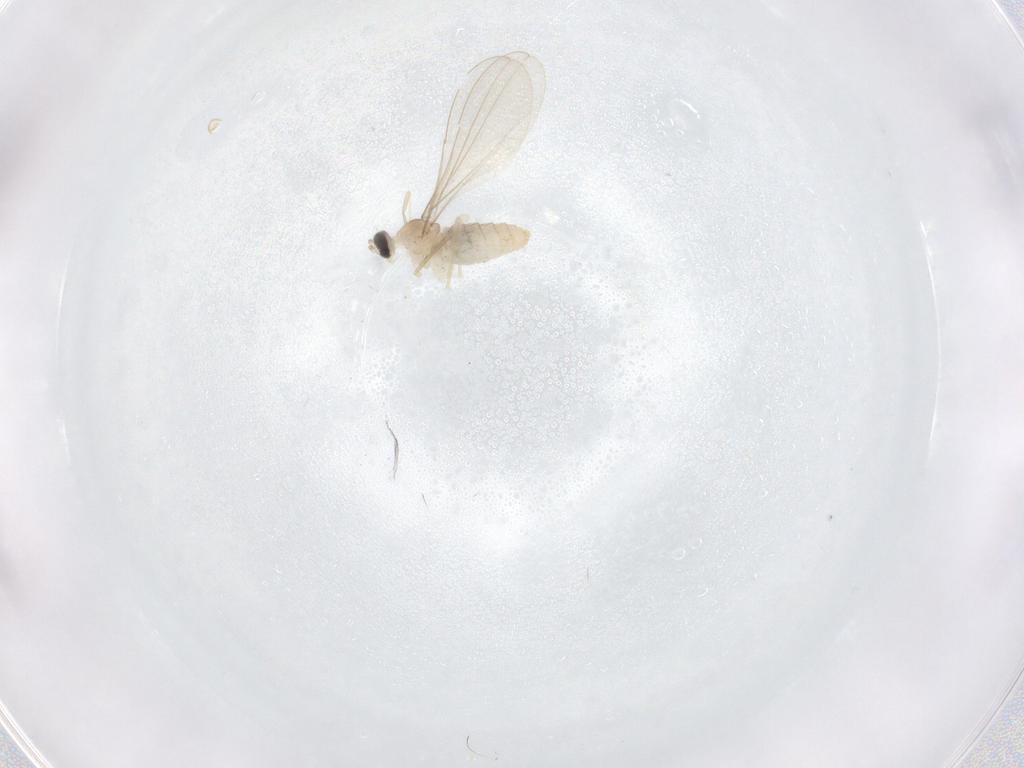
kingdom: Animalia
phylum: Arthropoda
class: Insecta
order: Diptera
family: Cecidomyiidae
